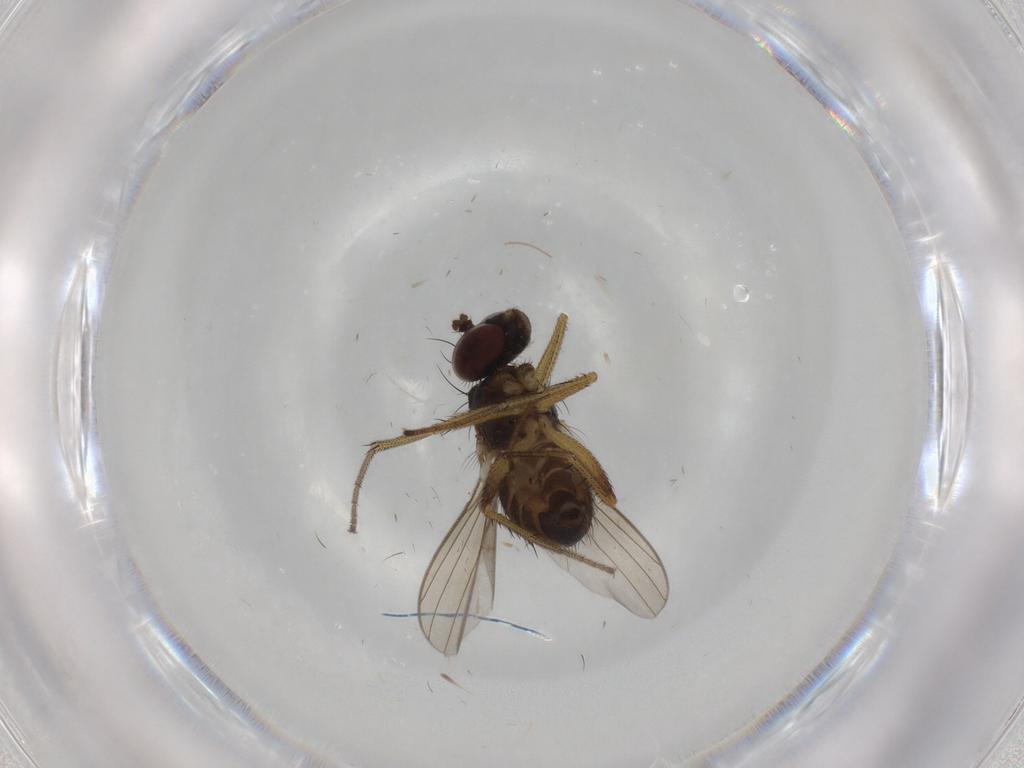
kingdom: Animalia
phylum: Arthropoda
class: Insecta
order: Diptera
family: Dolichopodidae
